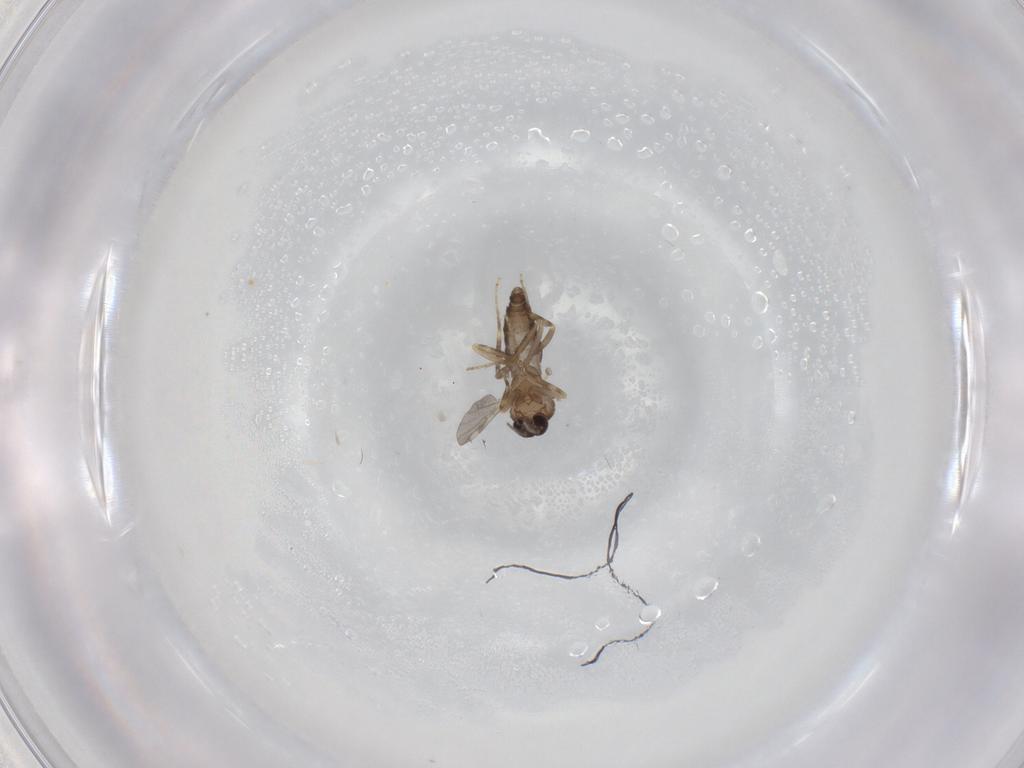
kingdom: Animalia
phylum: Arthropoda
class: Insecta
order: Diptera
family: Ceratopogonidae
